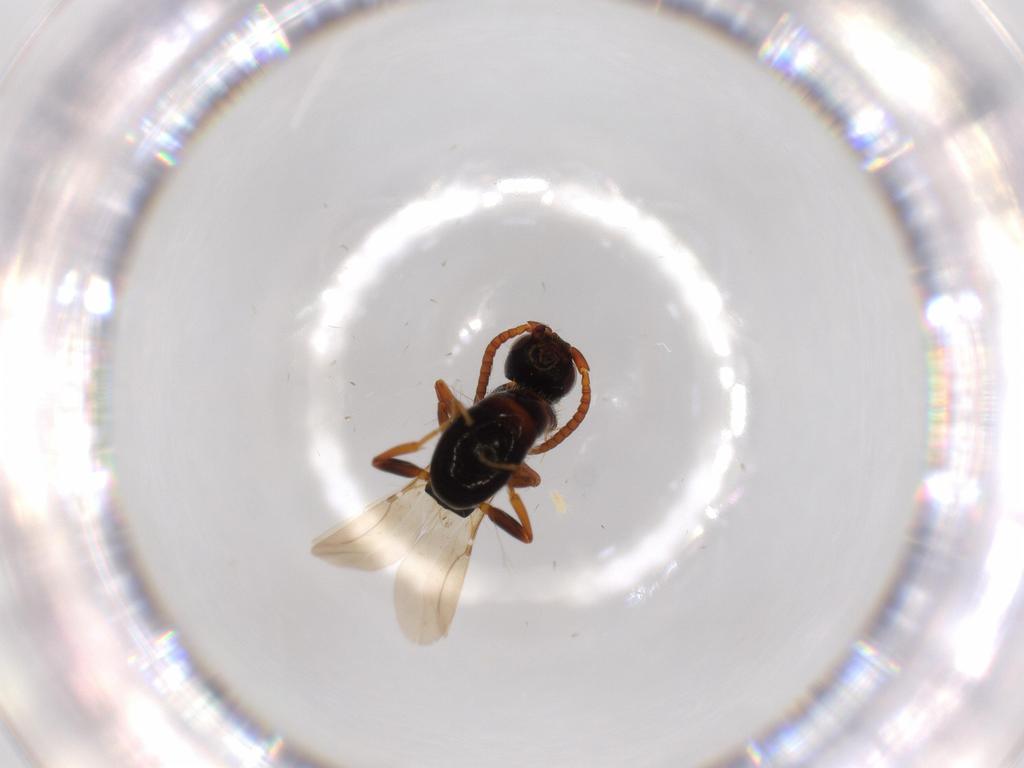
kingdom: Animalia
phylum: Arthropoda
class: Insecta
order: Hymenoptera
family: Bethylidae
